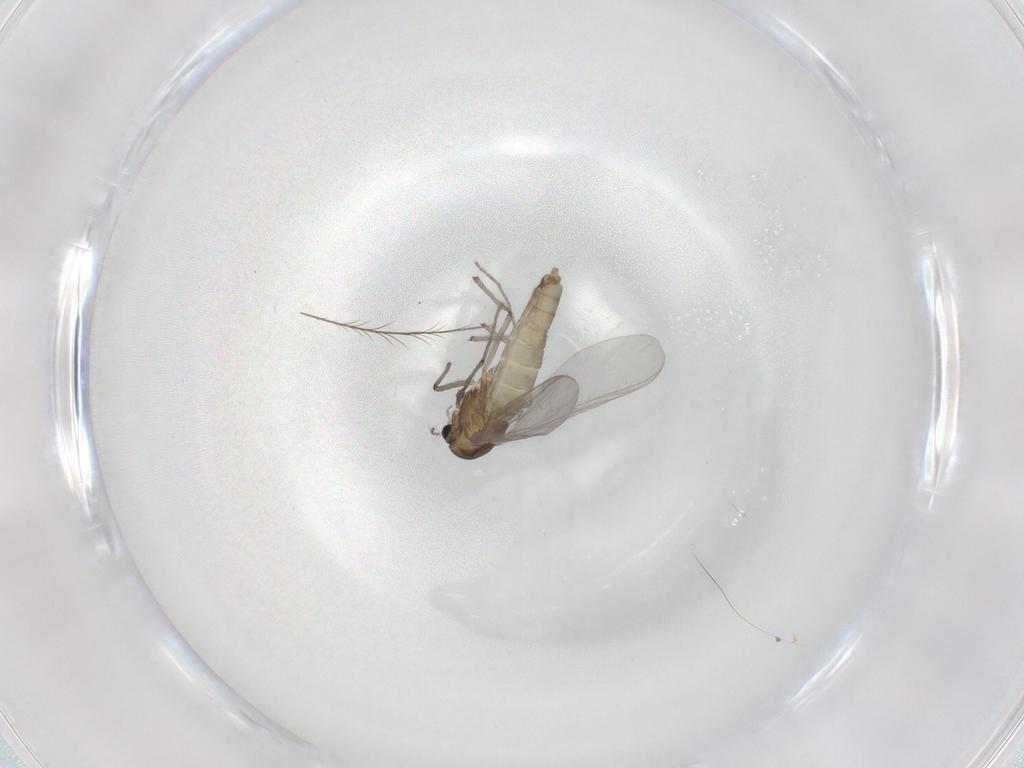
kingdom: Animalia
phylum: Arthropoda
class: Insecta
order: Diptera
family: Chironomidae
